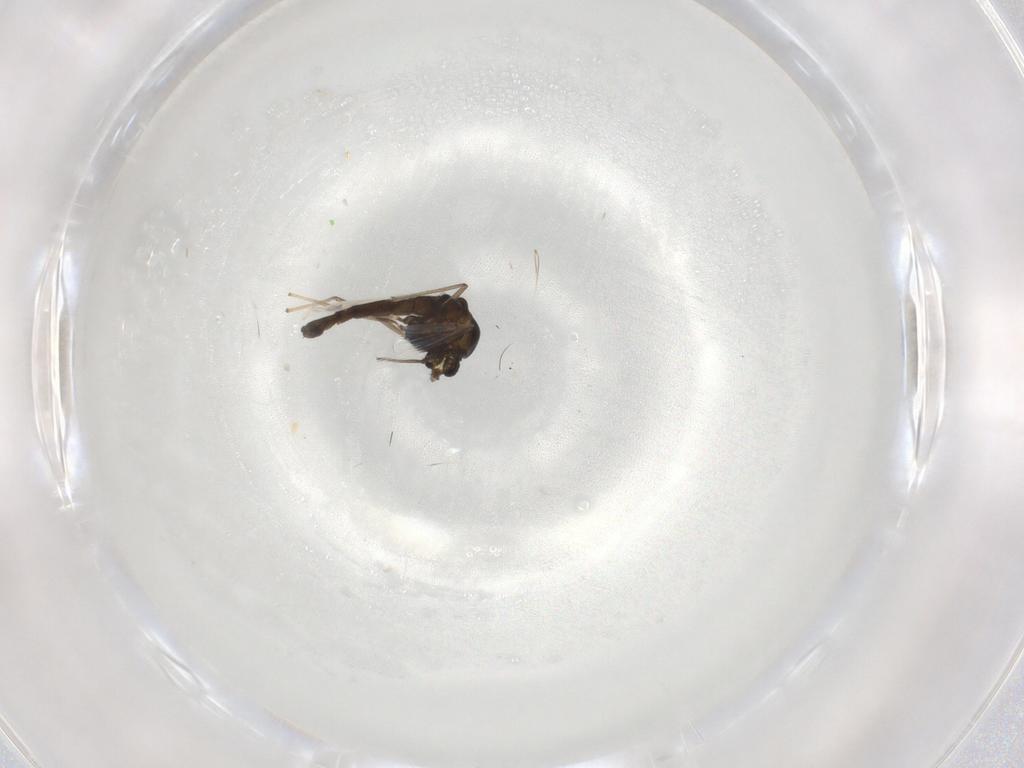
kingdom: Animalia
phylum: Arthropoda
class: Insecta
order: Diptera
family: Chironomidae
